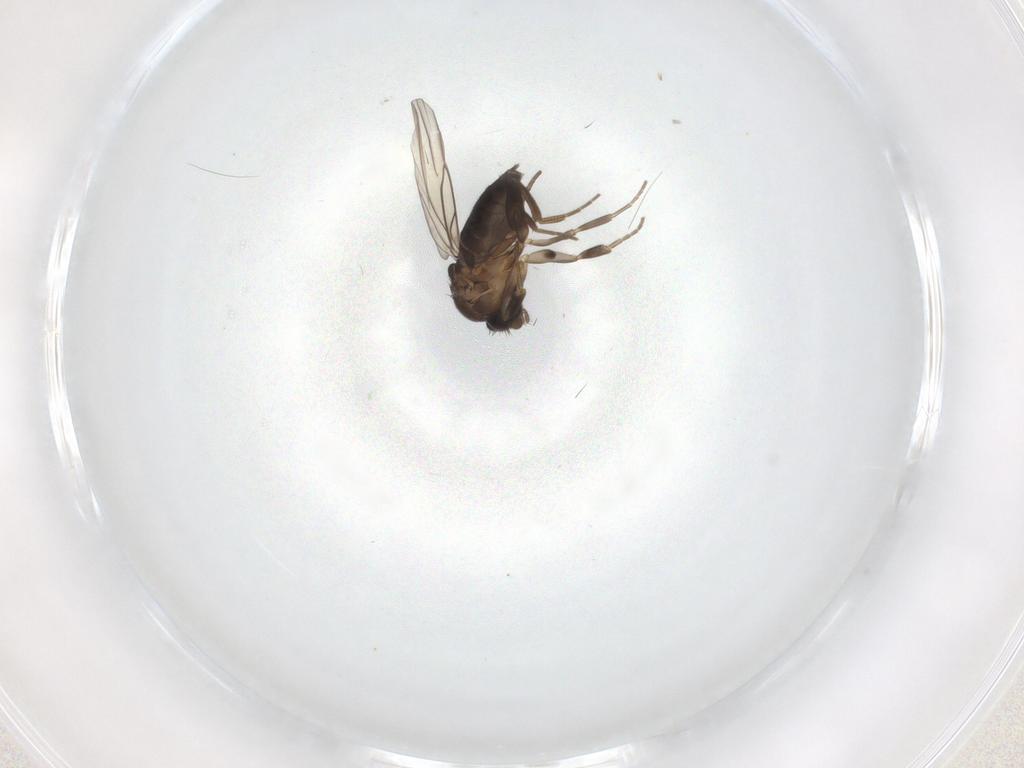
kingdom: Animalia
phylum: Arthropoda
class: Insecta
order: Diptera
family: Phoridae
